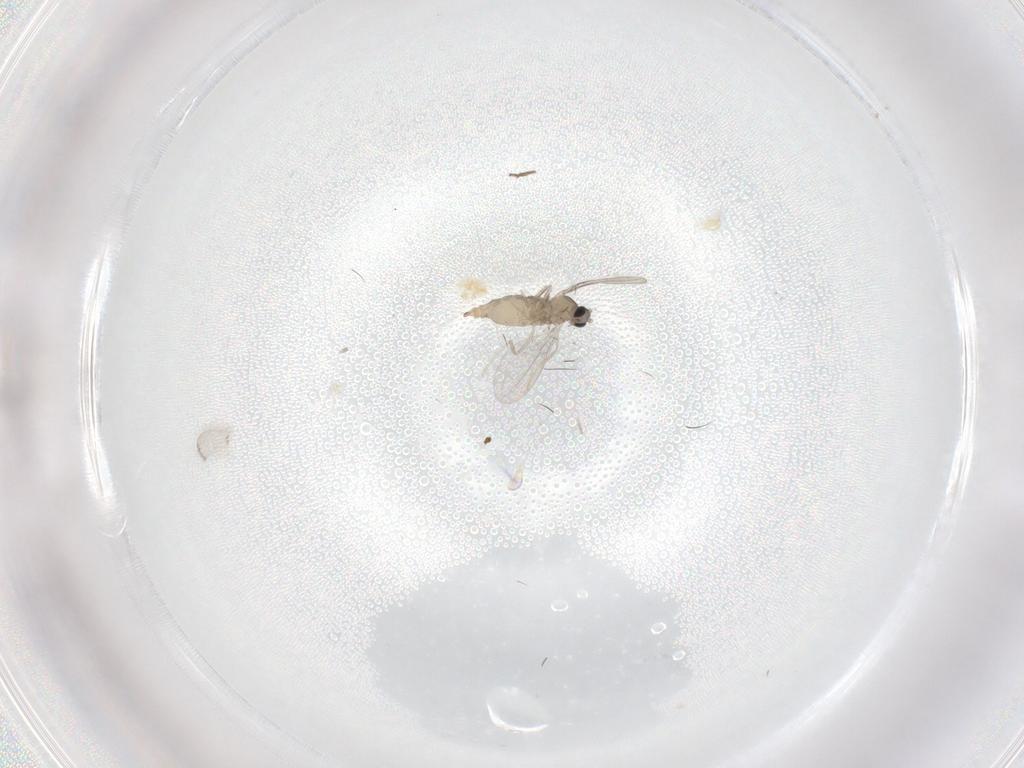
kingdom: Animalia
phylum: Arthropoda
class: Insecta
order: Diptera
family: Cecidomyiidae
